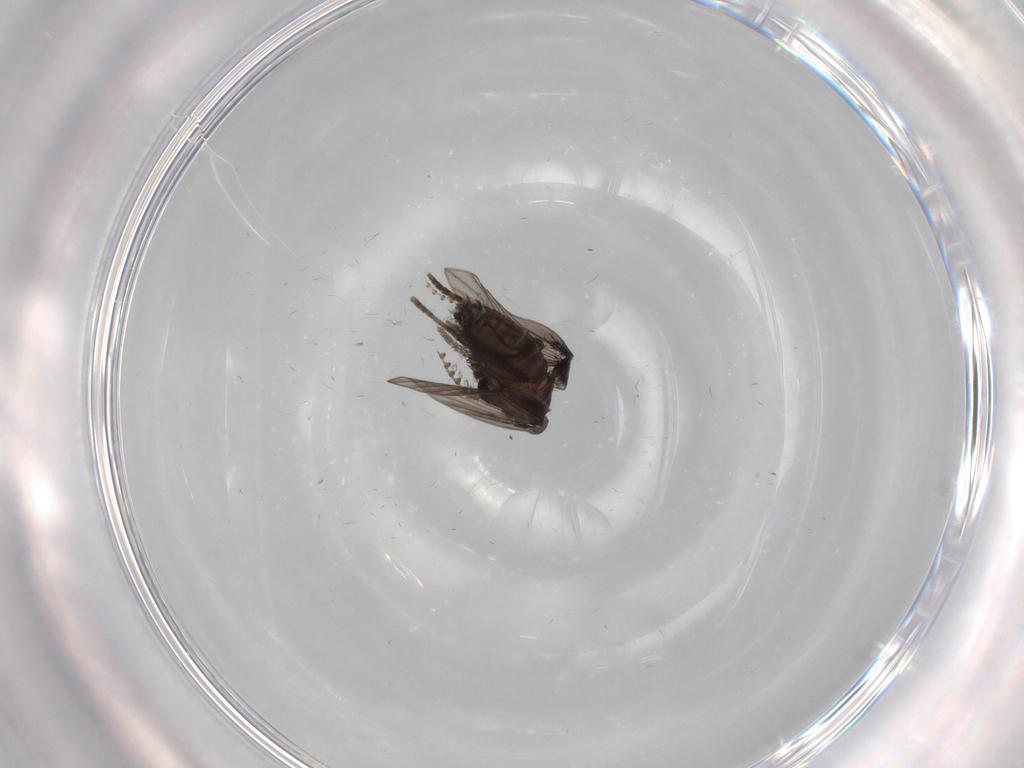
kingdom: Animalia
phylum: Arthropoda
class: Insecta
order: Diptera
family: Psychodidae
